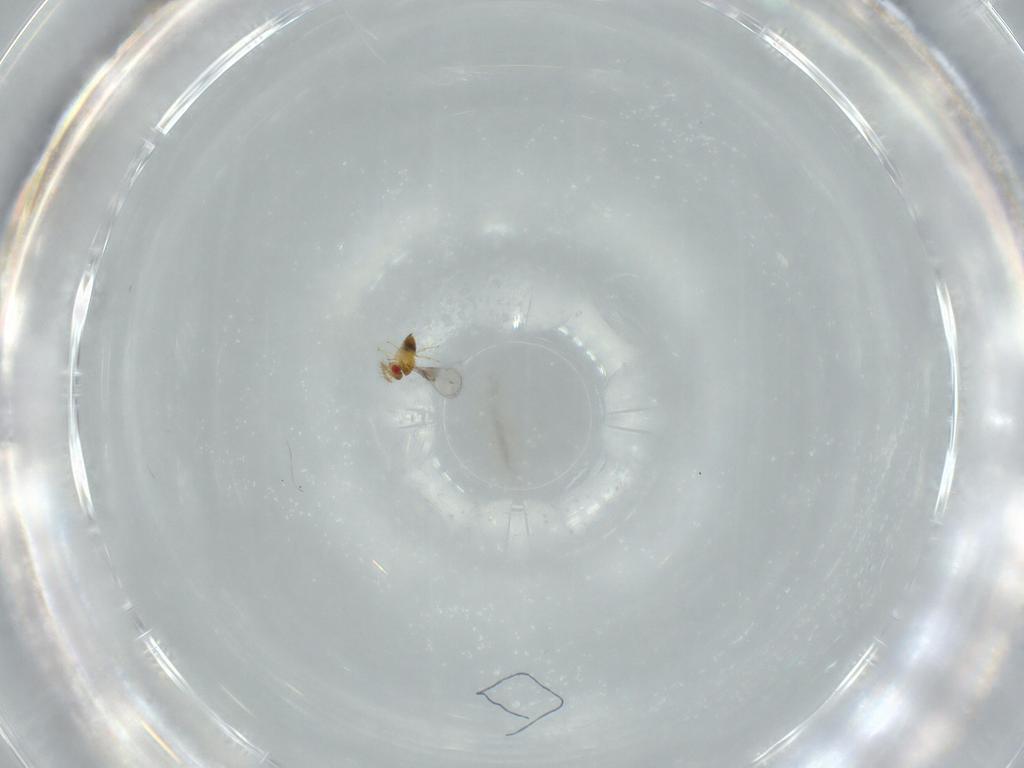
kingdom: Animalia
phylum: Arthropoda
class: Insecta
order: Hymenoptera
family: Trichogrammatidae
